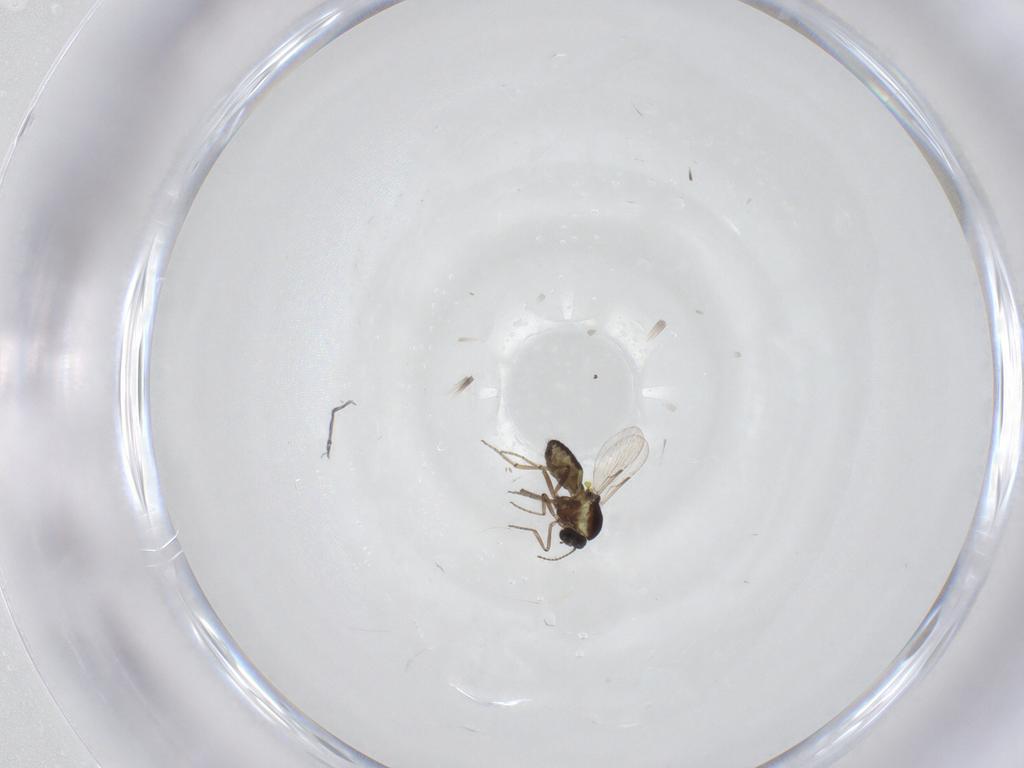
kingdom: Animalia
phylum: Arthropoda
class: Insecta
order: Diptera
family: Ceratopogonidae
